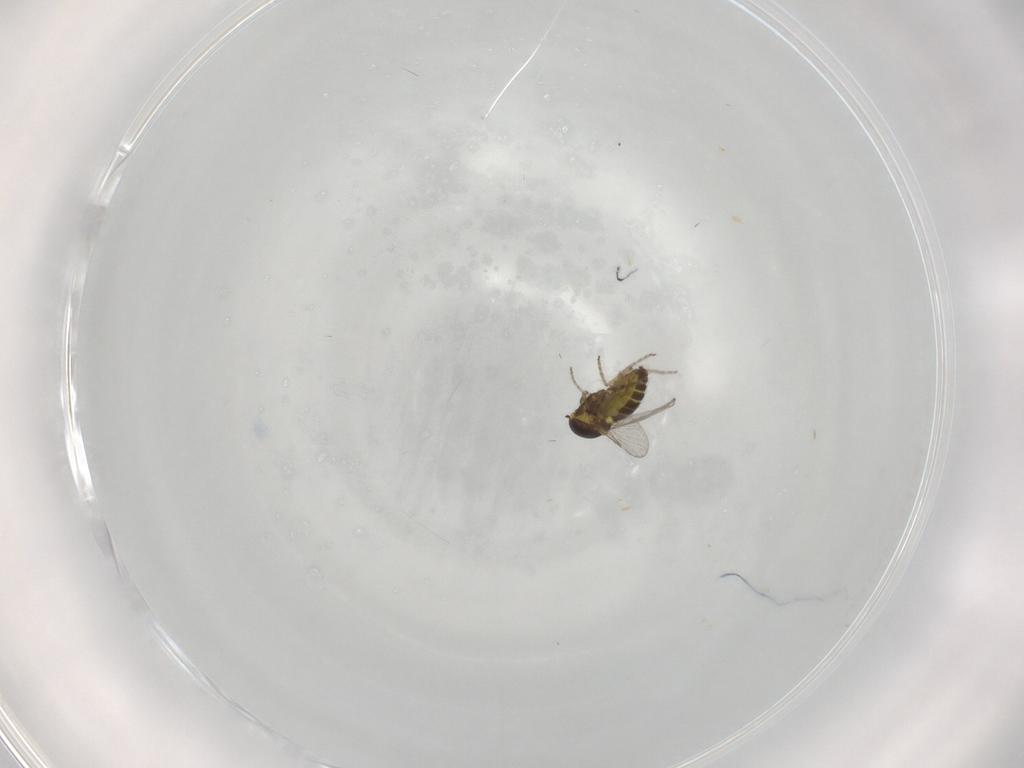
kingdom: Animalia
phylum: Arthropoda
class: Insecta
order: Diptera
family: Ceratopogonidae
